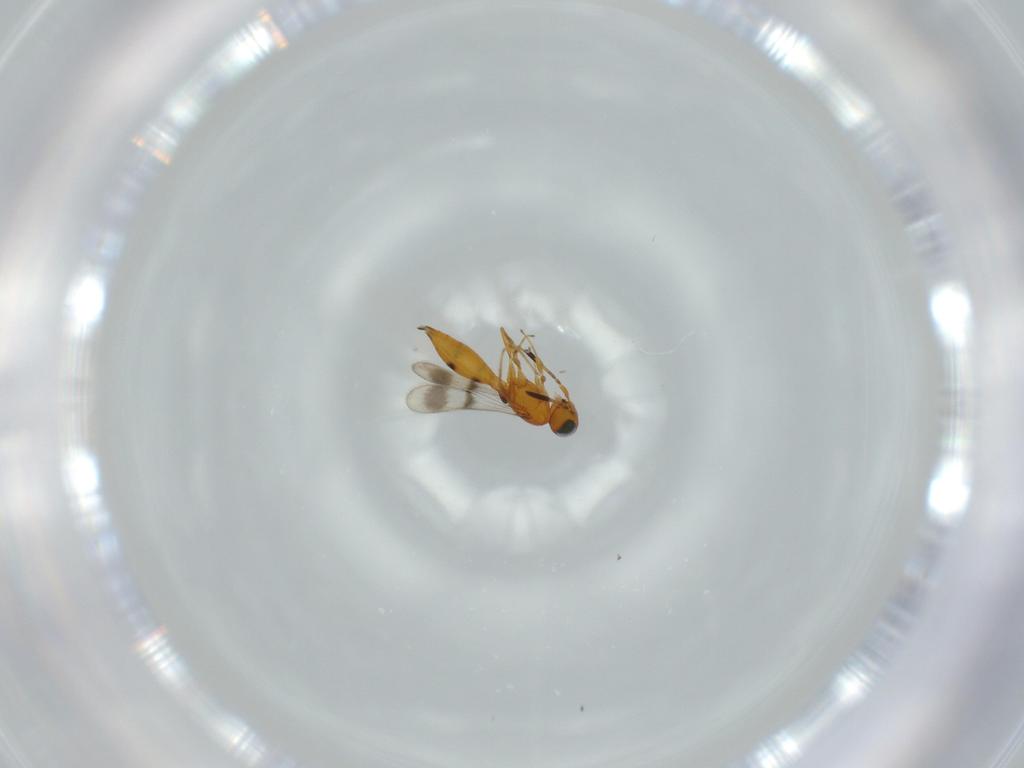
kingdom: Animalia
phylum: Arthropoda
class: Insecta
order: Hymenoptera
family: Scelionidae
